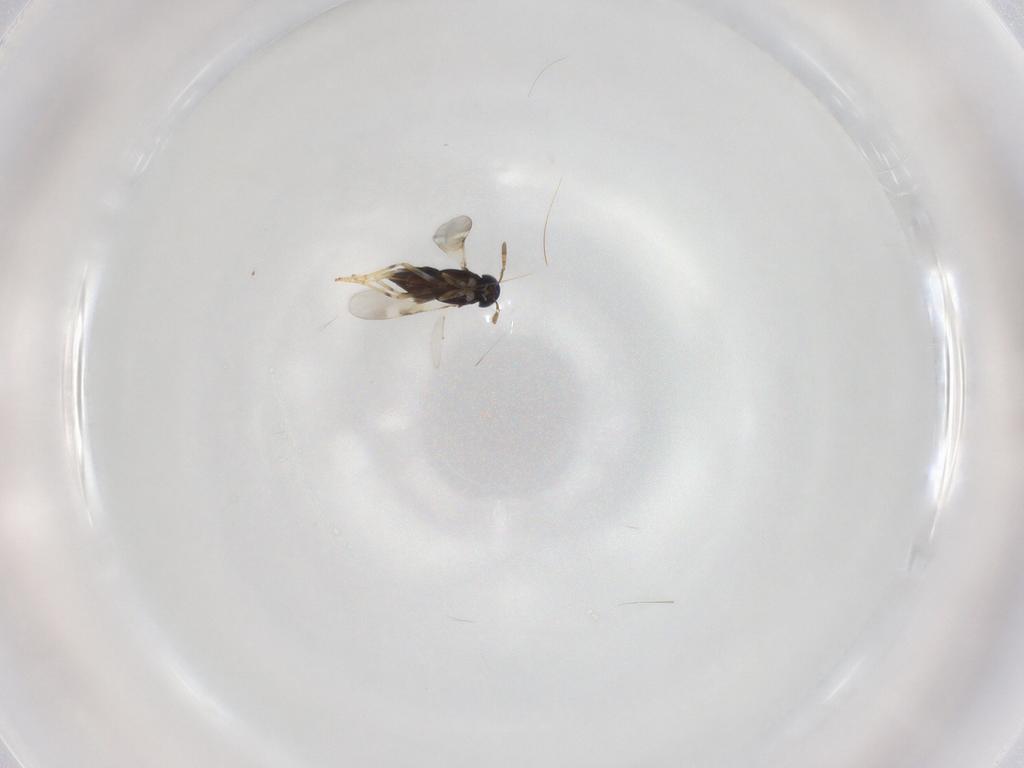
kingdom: Animalia
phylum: Arthropoda
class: Insecta
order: Hymenoptera
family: Encyrtidae
